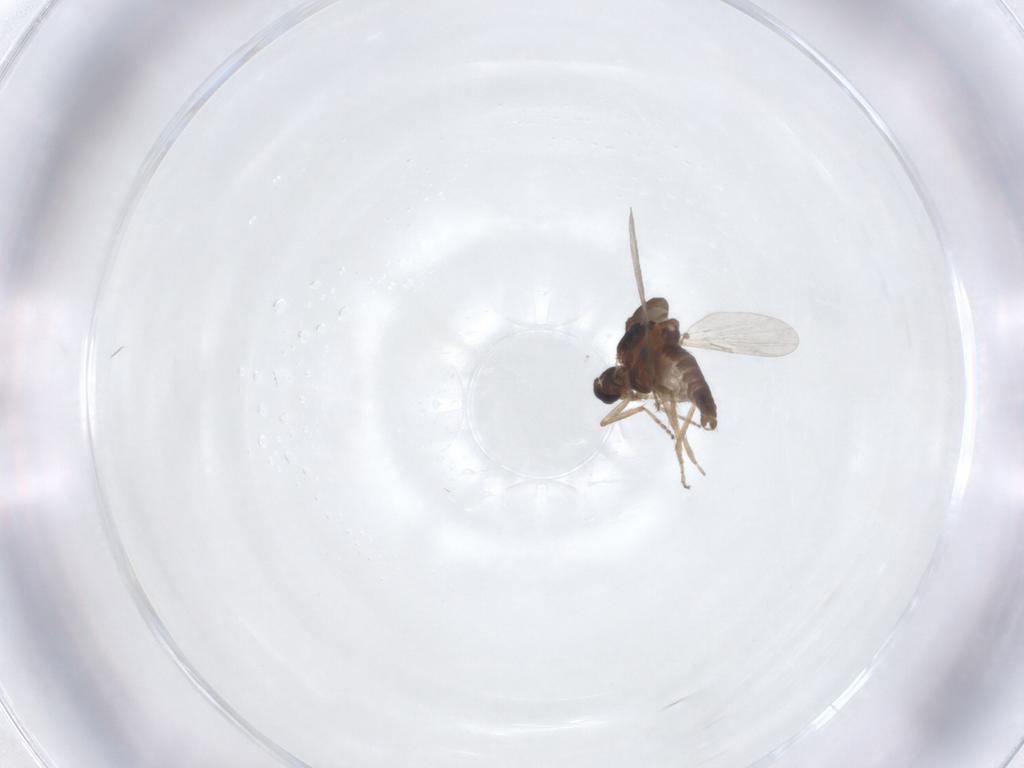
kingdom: Animalia
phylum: Arthropoda
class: Insecta
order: Diptera
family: Ceratopogonidae
